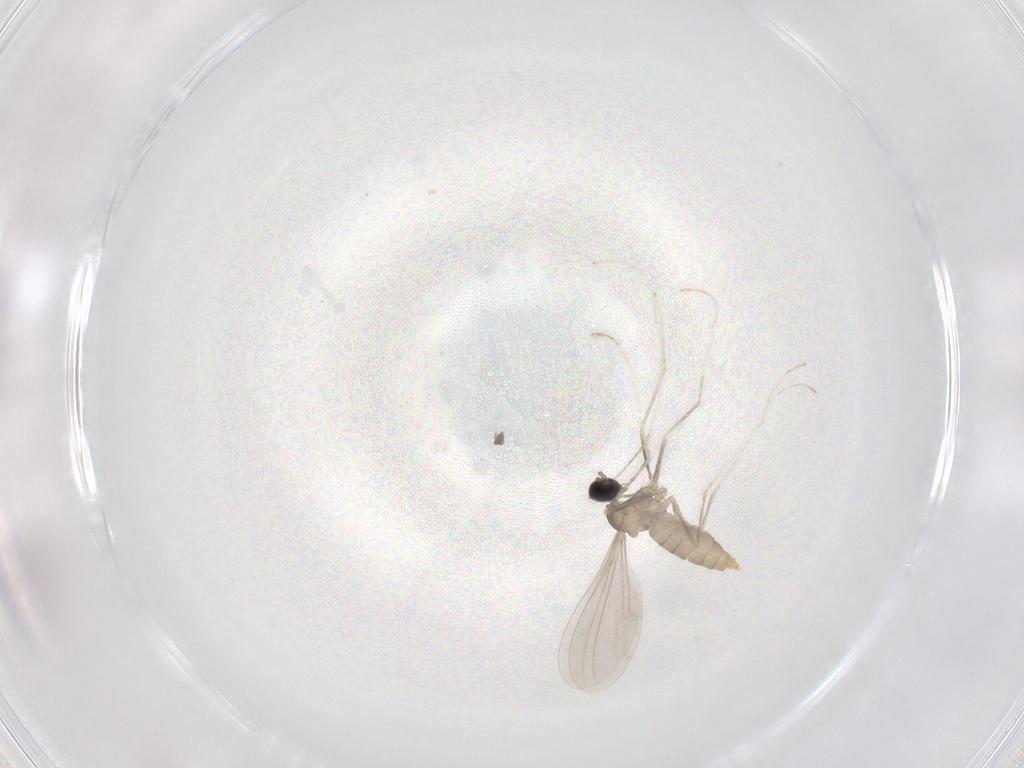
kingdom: Animalia
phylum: Arthropoda
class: Insecta
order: Diptera
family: Cecidomyiidae
